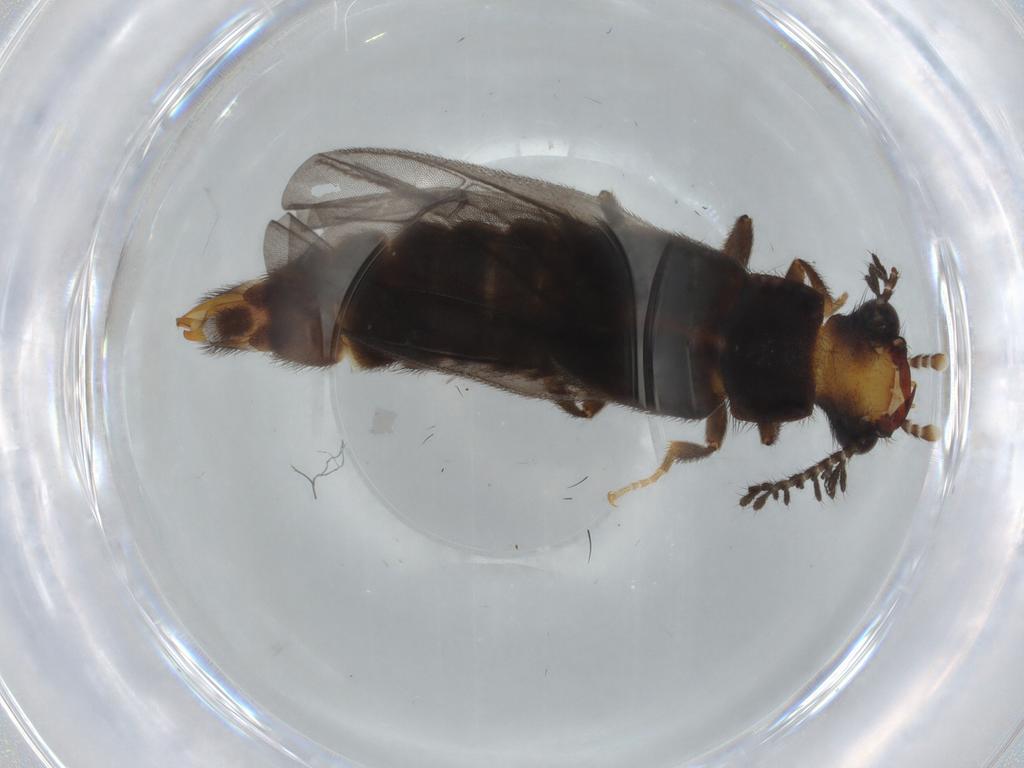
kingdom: Animalia
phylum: Arthropoda
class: Insecta
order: Coleoptera
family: Phengodidae
